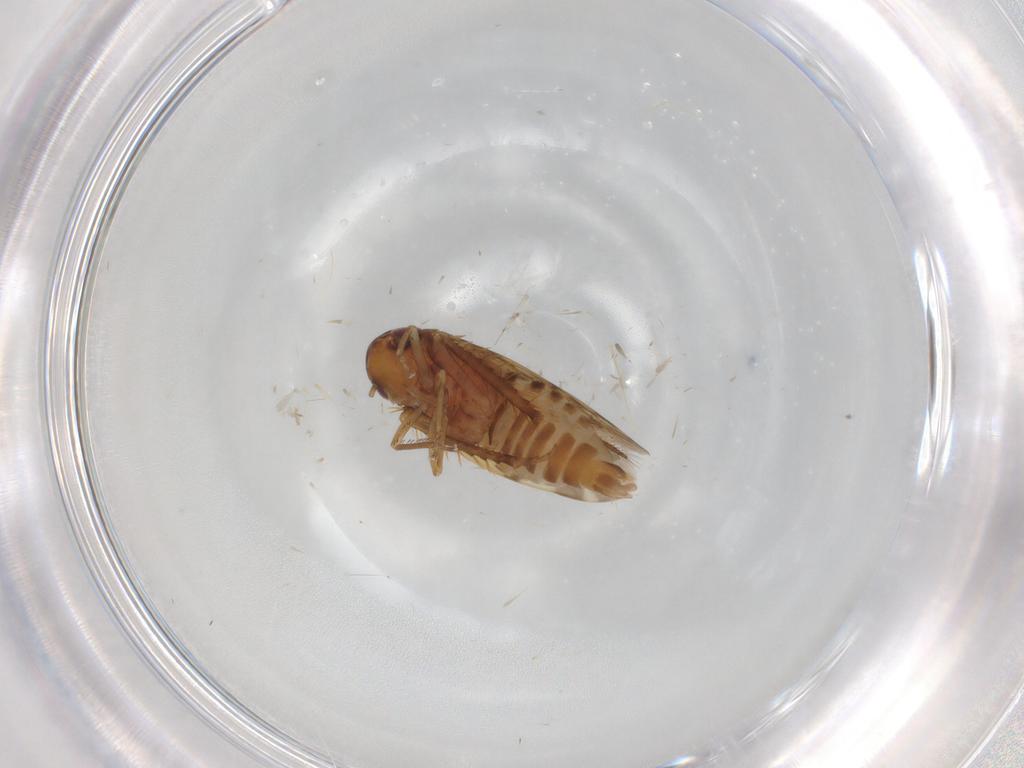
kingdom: Animalia
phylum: Arthropoda
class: Insecta
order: Hemiptera
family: Cicadellidae
